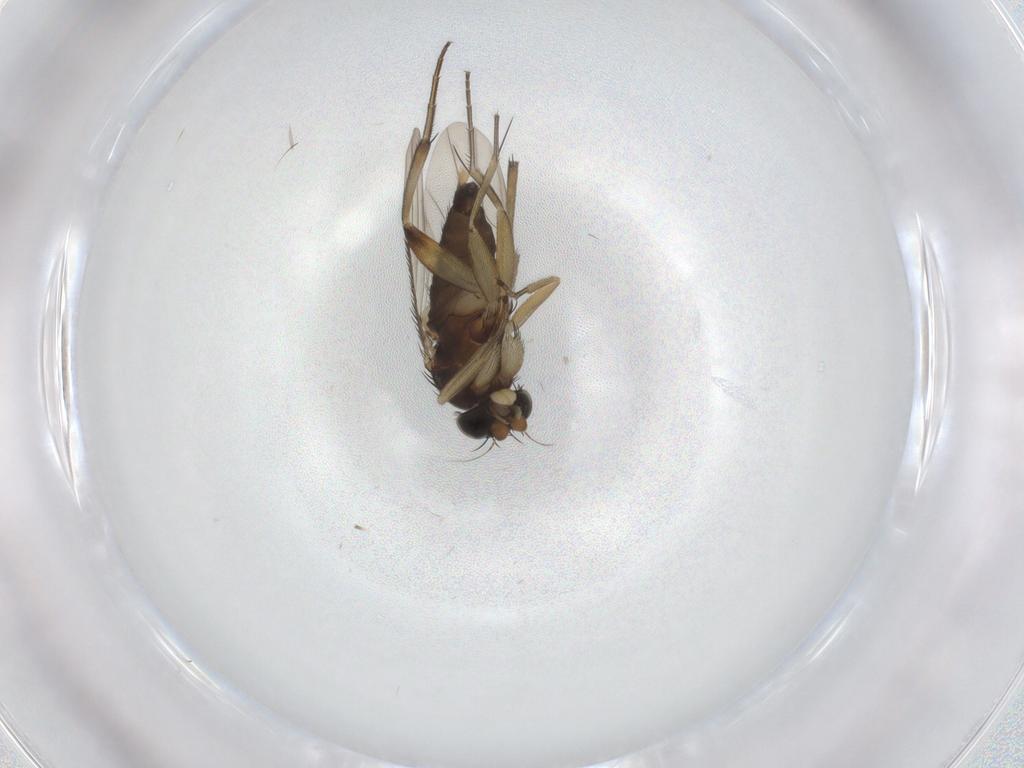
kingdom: Animalia
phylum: Arthropoda
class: Insecta
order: Diptera
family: Phoridae
